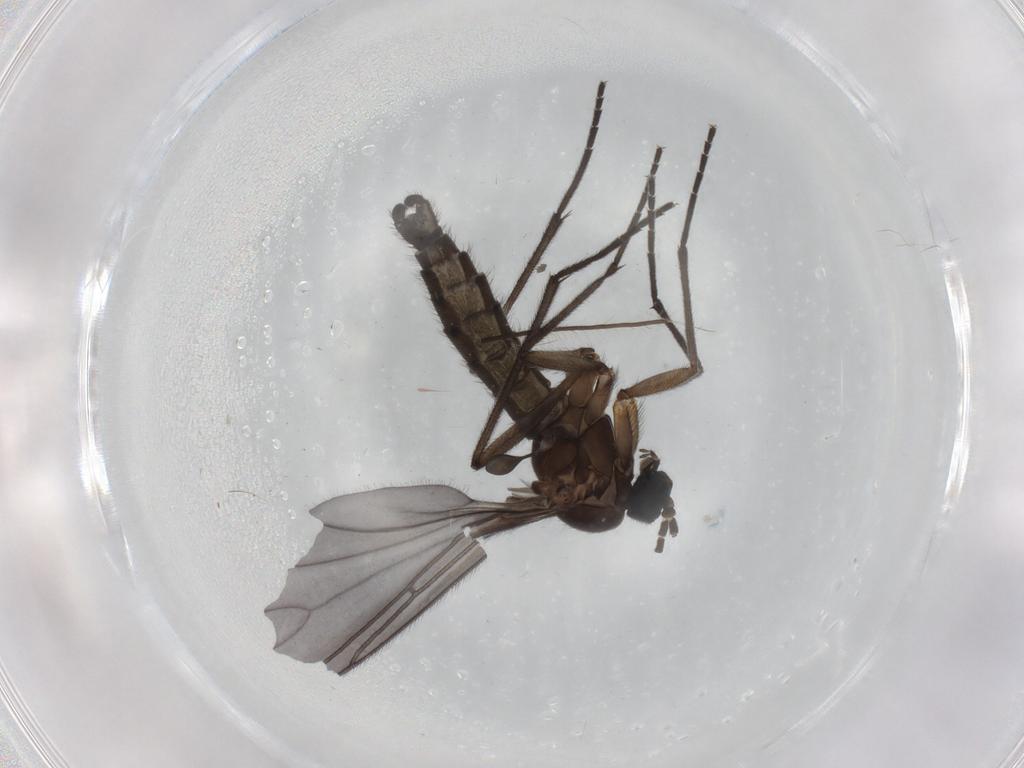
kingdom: Animalia
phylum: Arthropoda
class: Insecta
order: Diptera
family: Sciaridae
